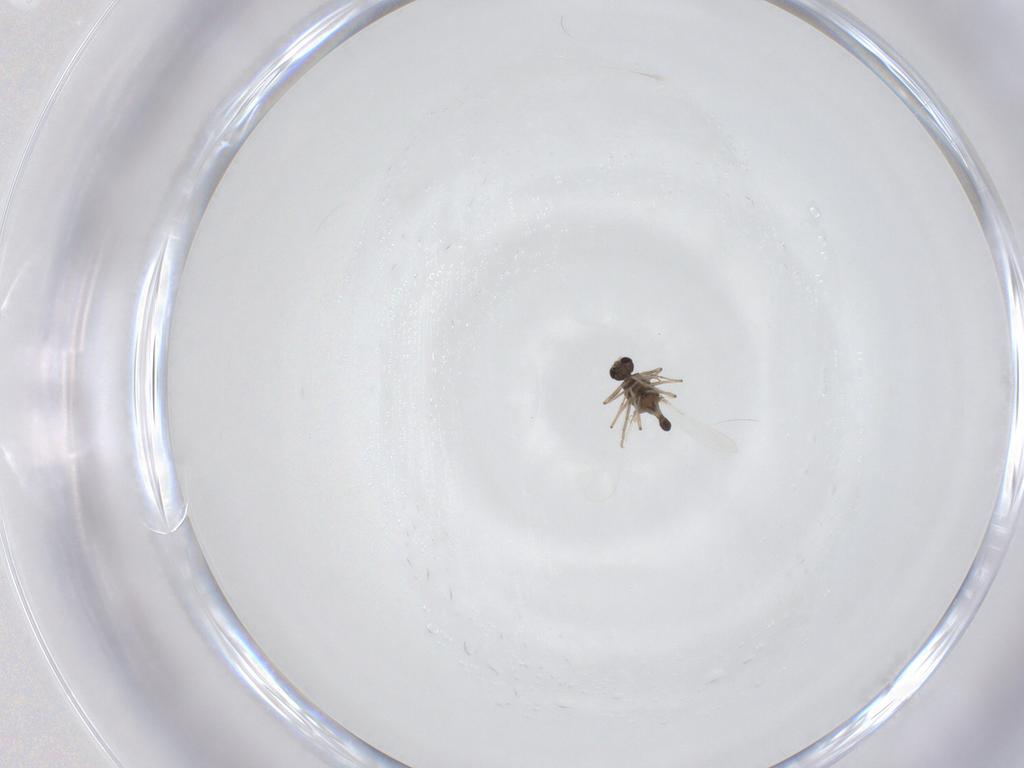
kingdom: Animalia
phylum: Arthropoda
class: Insecta
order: Diptera
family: Chironomidae
